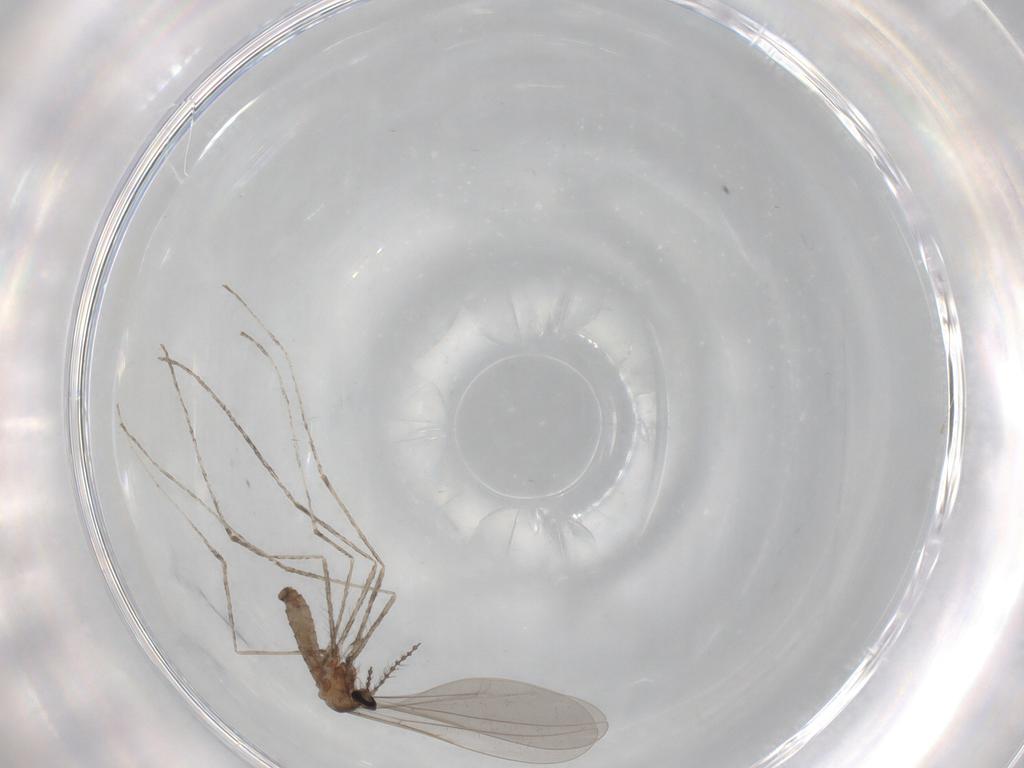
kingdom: Animalia
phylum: Arthropoda
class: Insecta
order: Diptera
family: Cecidomyiidae
